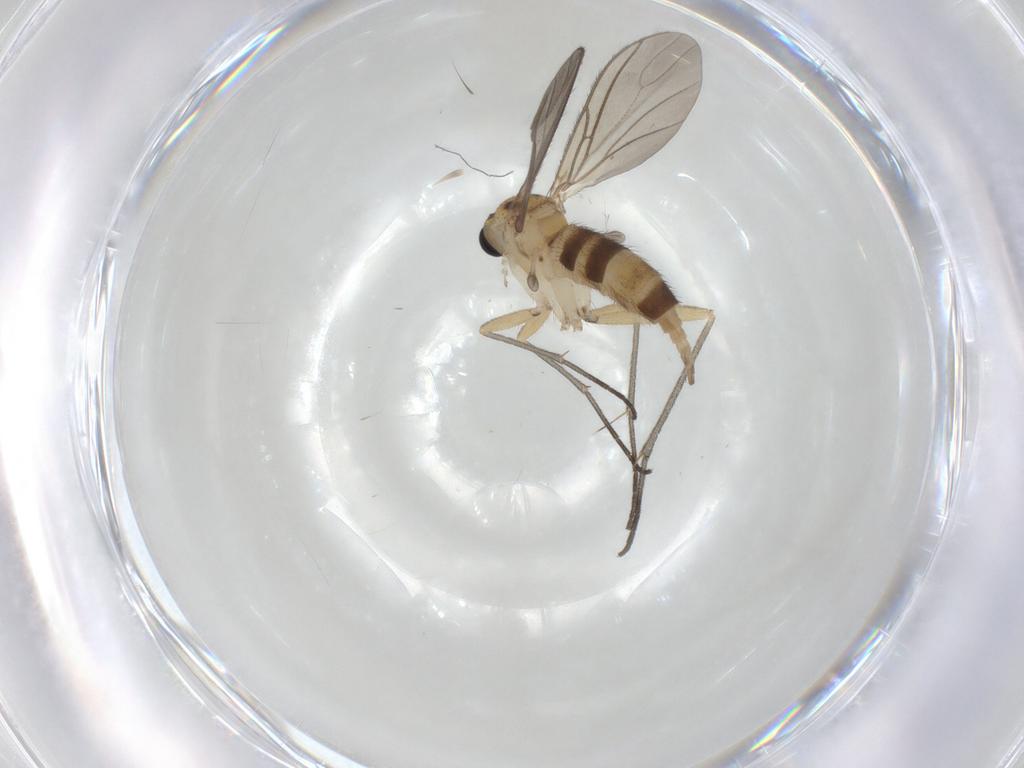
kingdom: Animalia
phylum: Arthropoda
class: Insecta
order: Diptera
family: Sciaridae
